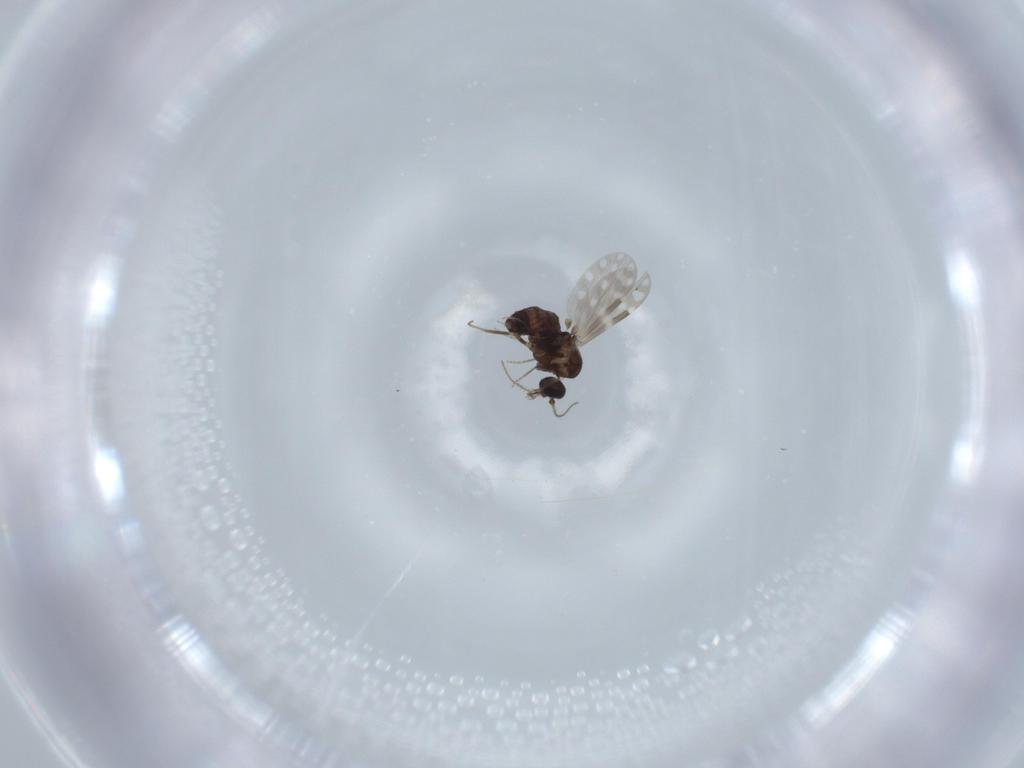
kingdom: Animalia
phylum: Arthropoda
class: Insecta
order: Diptera
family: Ceratopogonidae
